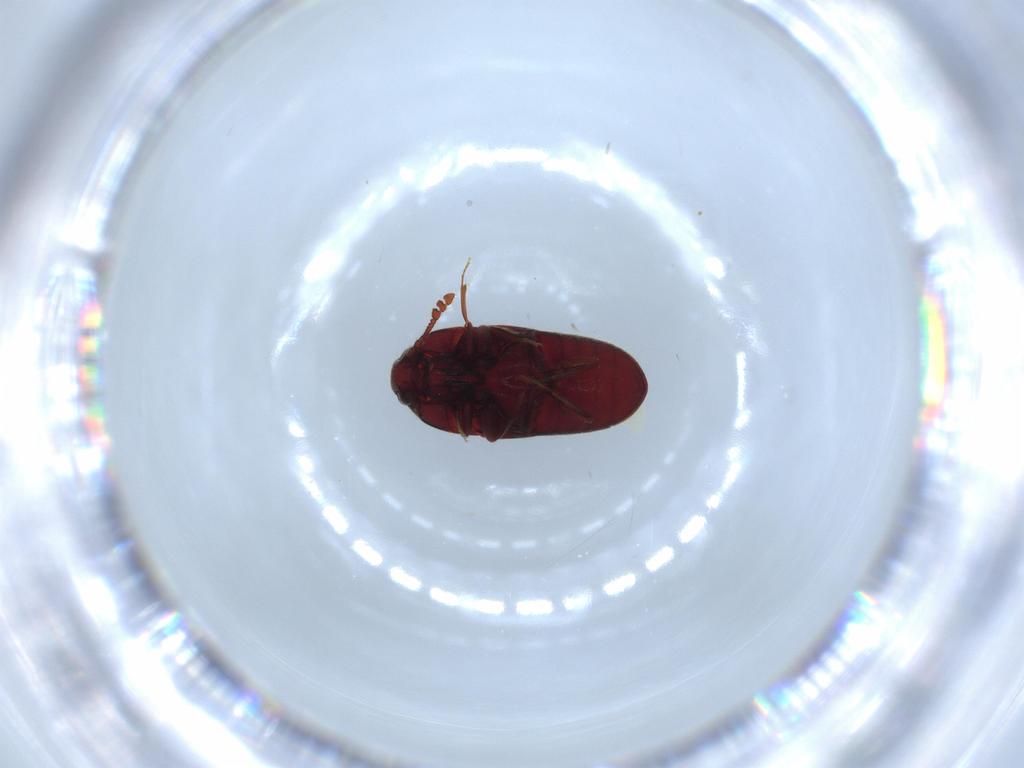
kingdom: Animalia
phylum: Arthropoda
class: Insecta
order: Coleoptera
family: Throscidae
